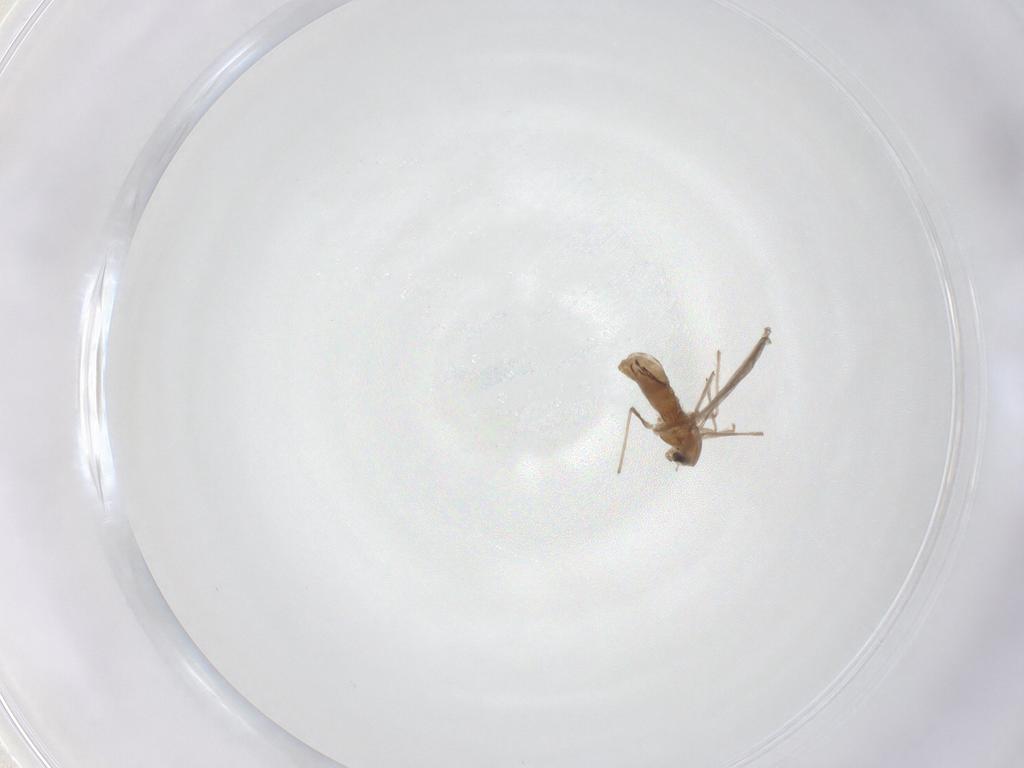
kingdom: Animalia
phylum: Arthropoda
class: Insecta
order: Diptera
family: Chironomidae
